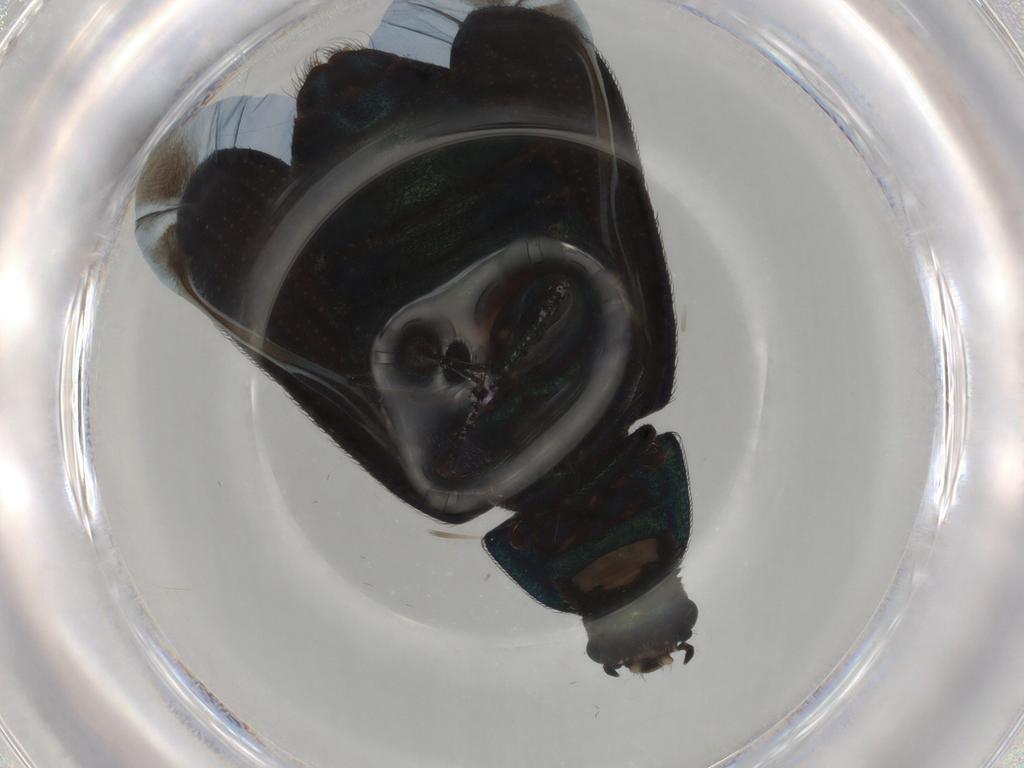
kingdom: Animalia
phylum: Arthropoda
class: Insecta
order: Coleoptera
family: Melyridae
